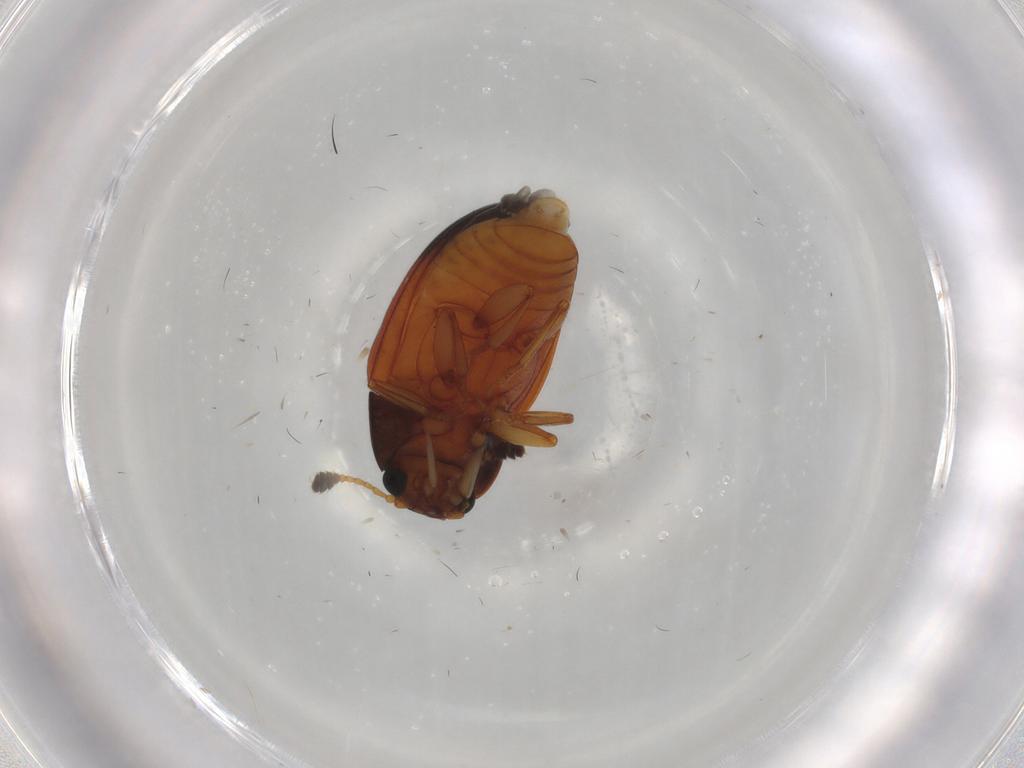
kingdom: Animalia
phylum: Arthropoda
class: Insecta
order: Coleoptera
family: Erotylidae
